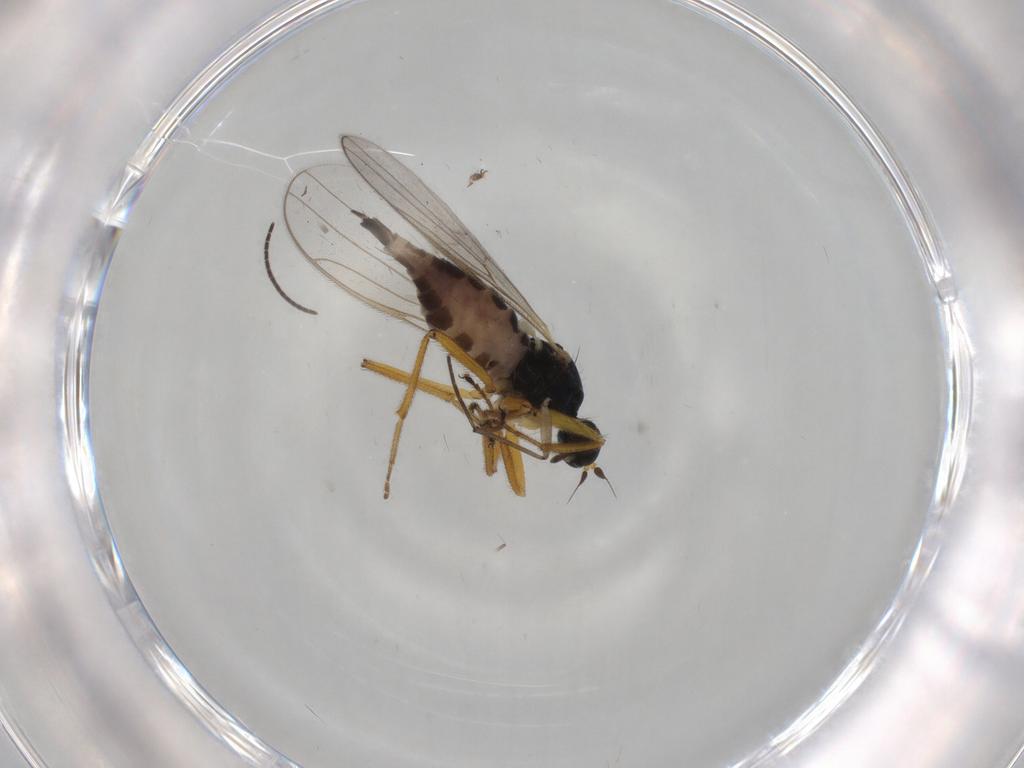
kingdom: Animalia
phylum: Arthropoda
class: Insecta
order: Diptera
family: Hybotidae
